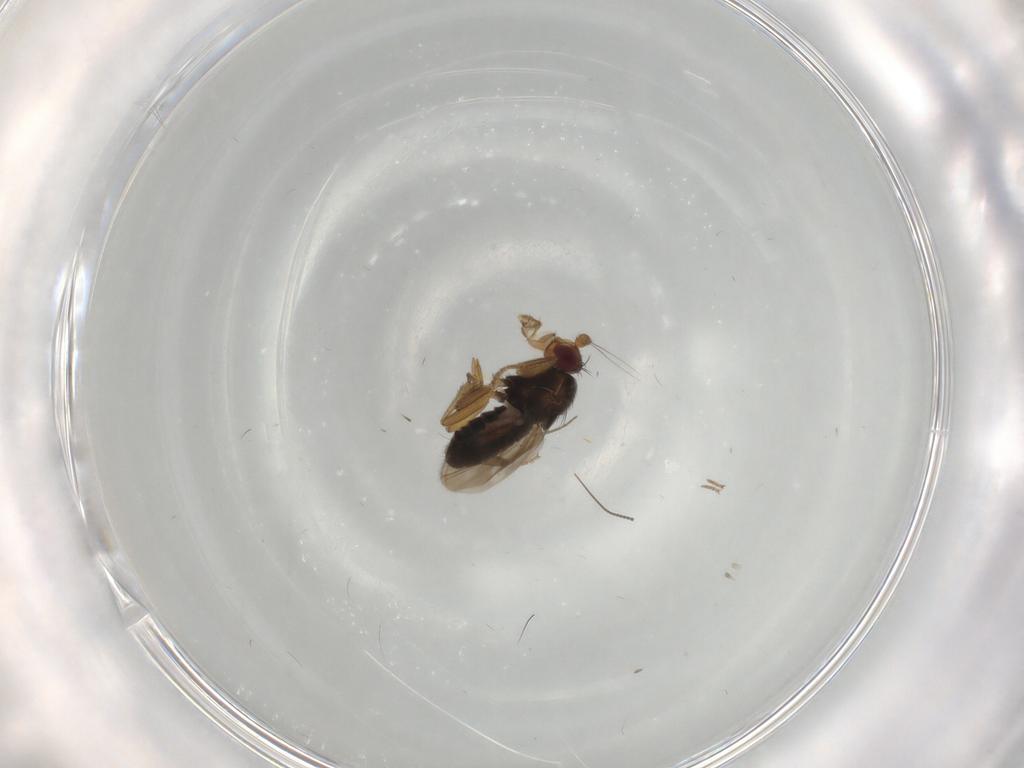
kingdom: Animalia
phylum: Arthropoda
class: Insecta
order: Diptera
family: Sphaeroceridae
